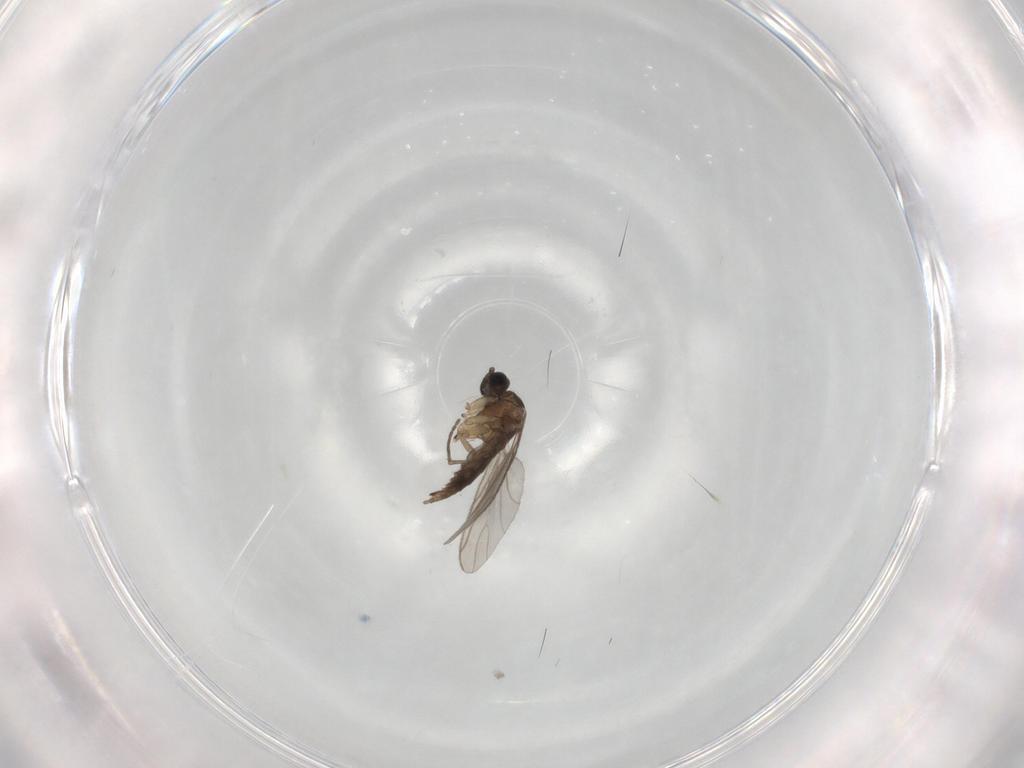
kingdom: Animalia
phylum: Arthropoda
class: Insecta
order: Diptera
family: Sciaridae
